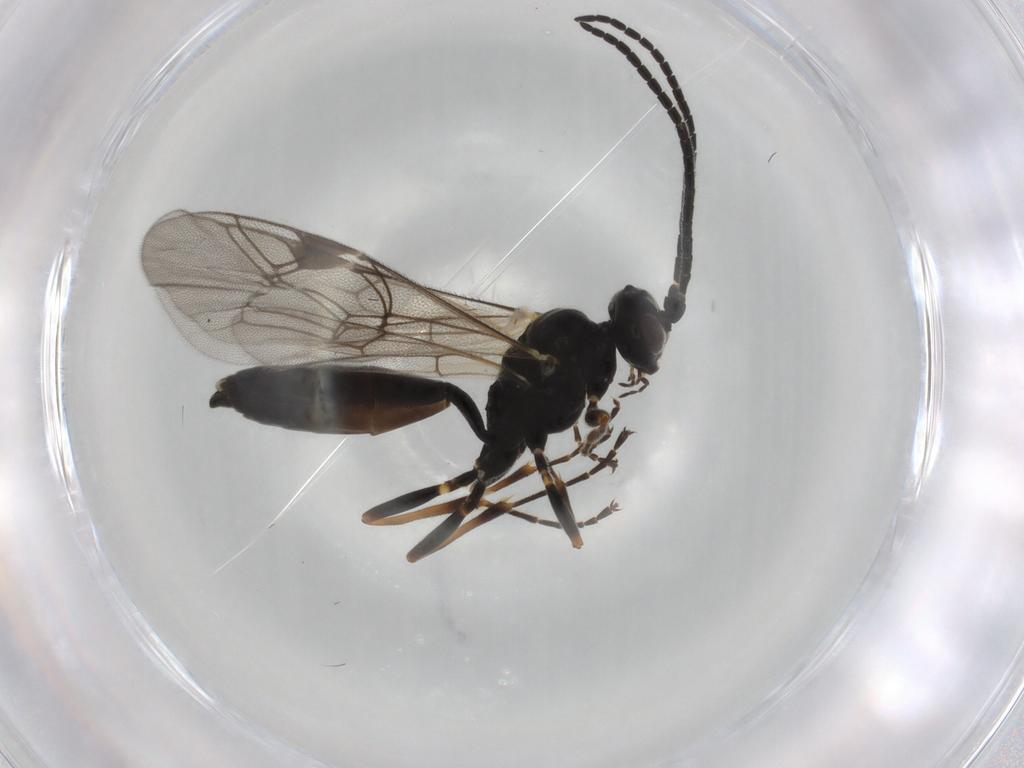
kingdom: Animalia
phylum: Arthropoda
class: Insecta
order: Hymenoptera
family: Ichneumonidae
